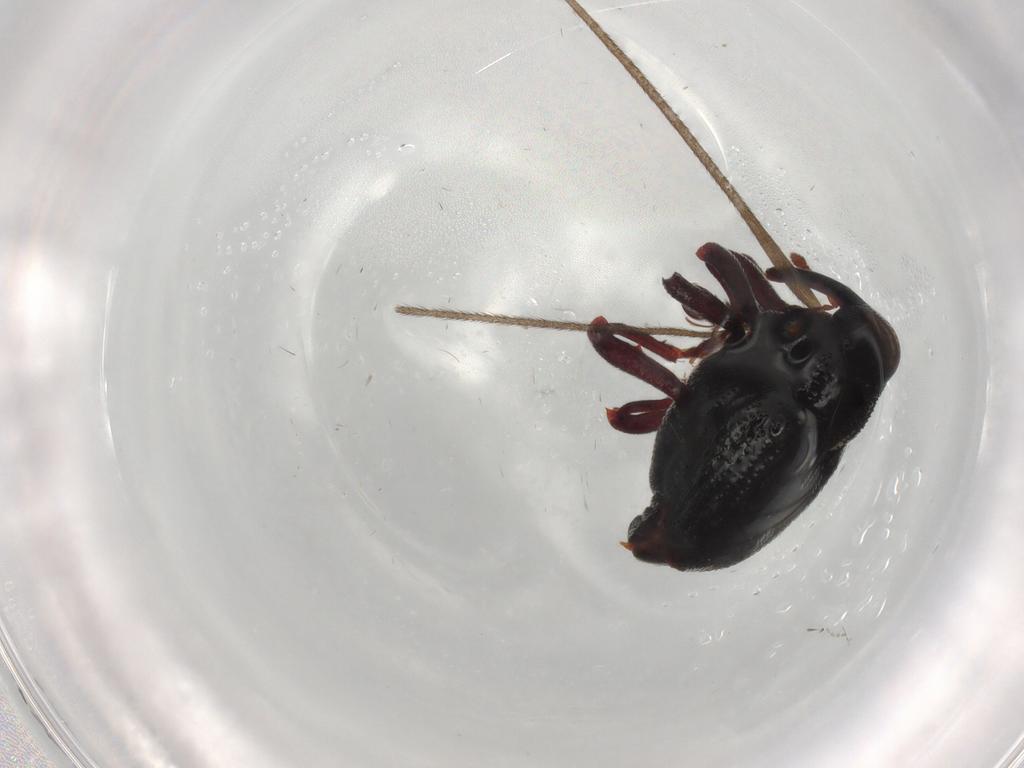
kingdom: Animalia
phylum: Arthropoda
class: Insecta
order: Coleoptera
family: Curculionidae
